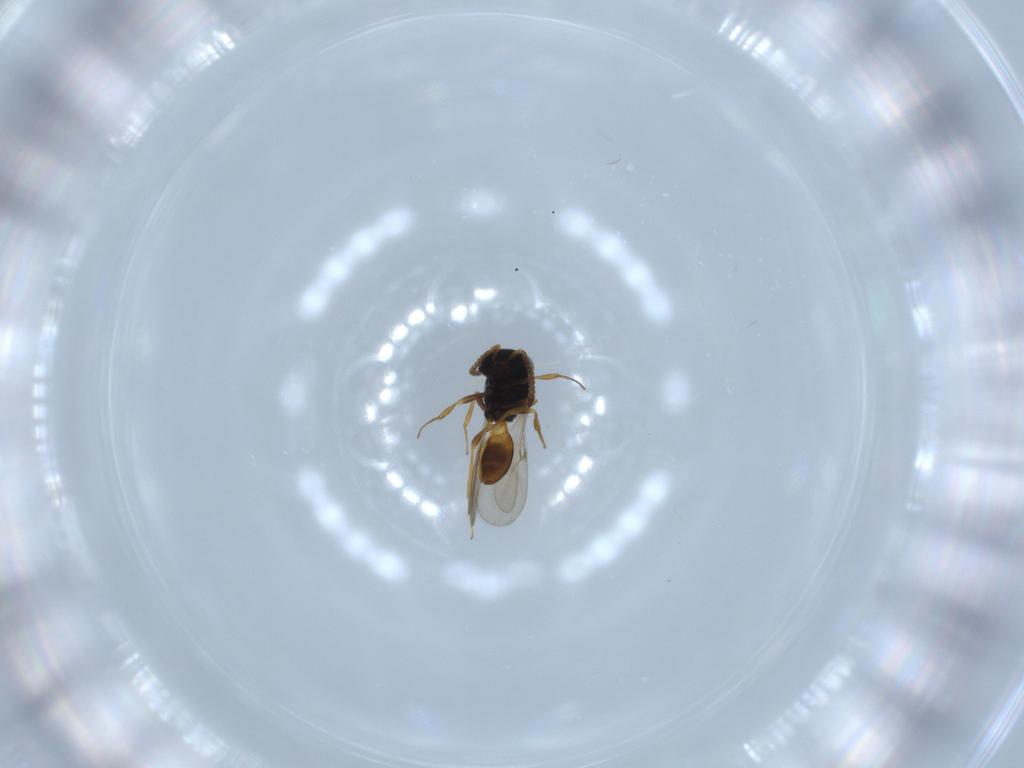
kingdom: Animalia
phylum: Arthropoda
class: Insecta
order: Hymenoptera
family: Scelionidae
